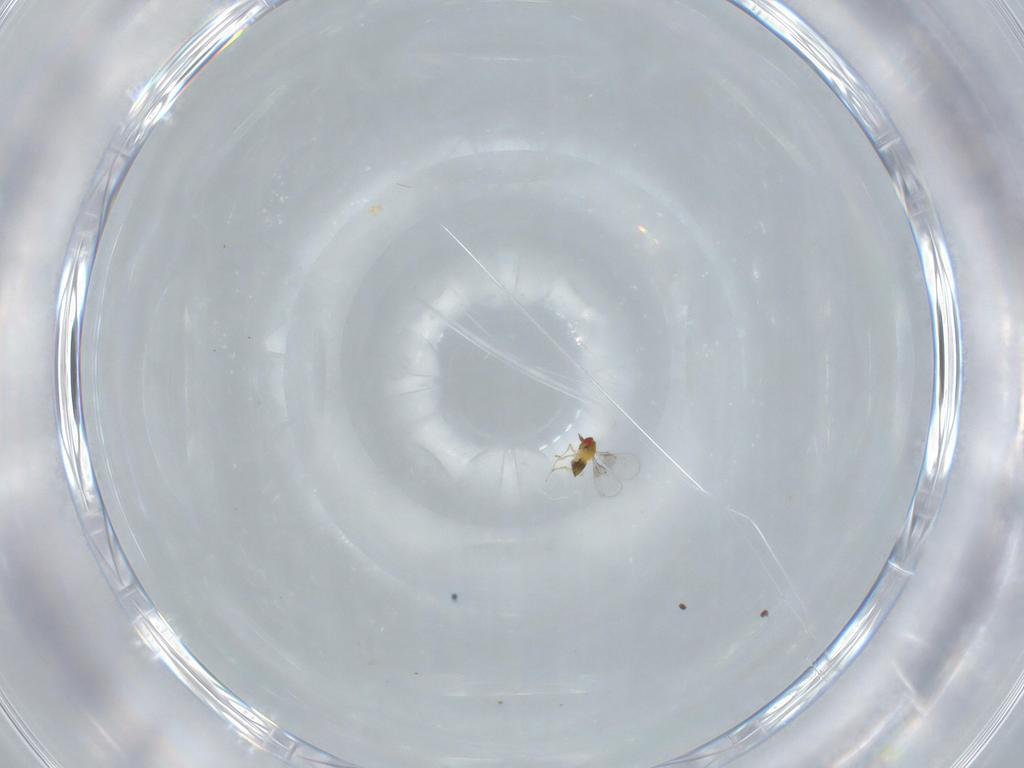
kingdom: Animalia
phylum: Arthropoda
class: Insecta
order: Hymenoptera
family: Trichogrammatidae
